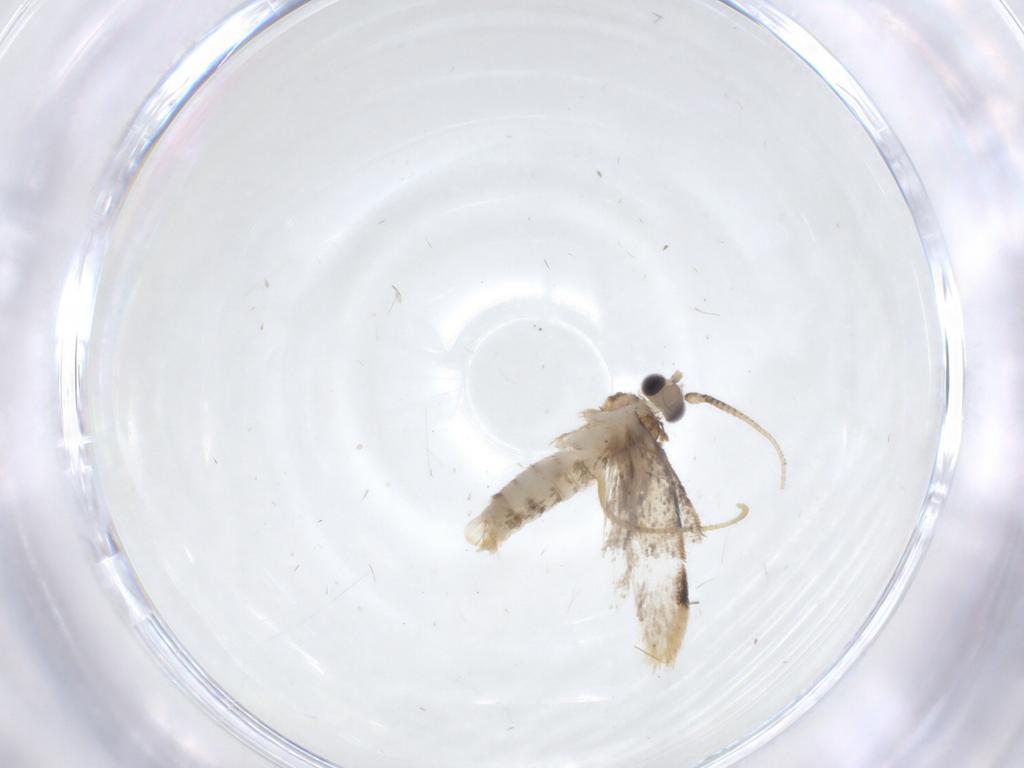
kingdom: Animalia
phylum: Arthropoda
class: Insecta
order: Lepidoptera
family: Dryadaulidae
